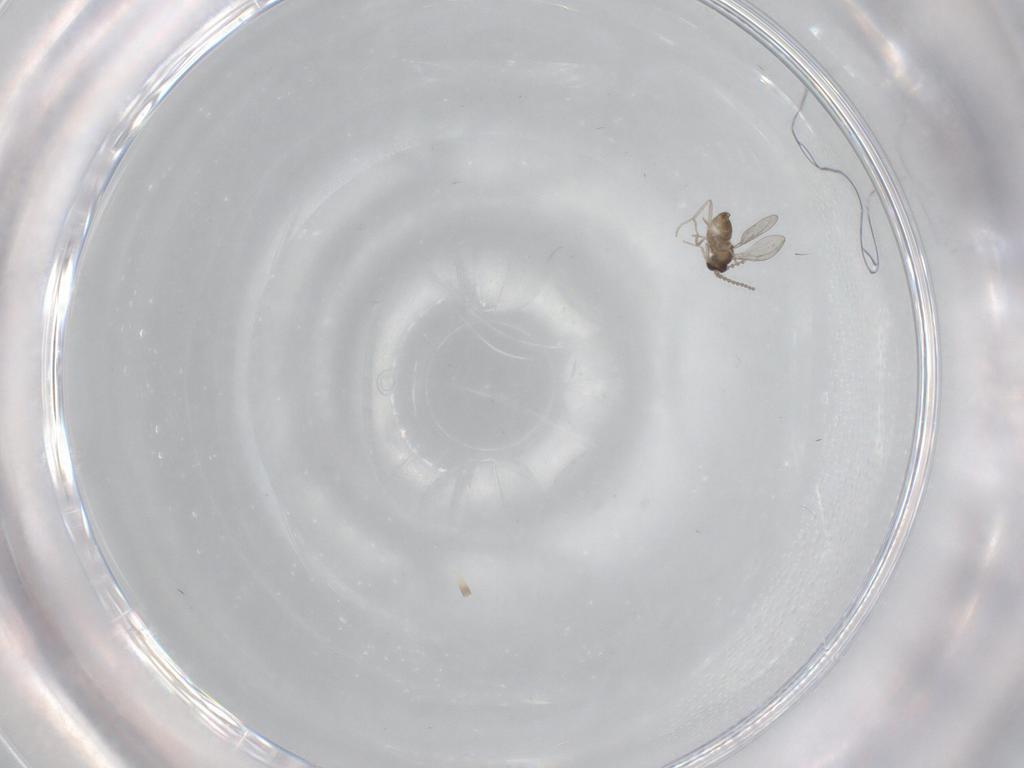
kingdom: Animalia
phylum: Arthropoda
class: Insecta
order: Diptera
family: Cecidomyiidae
